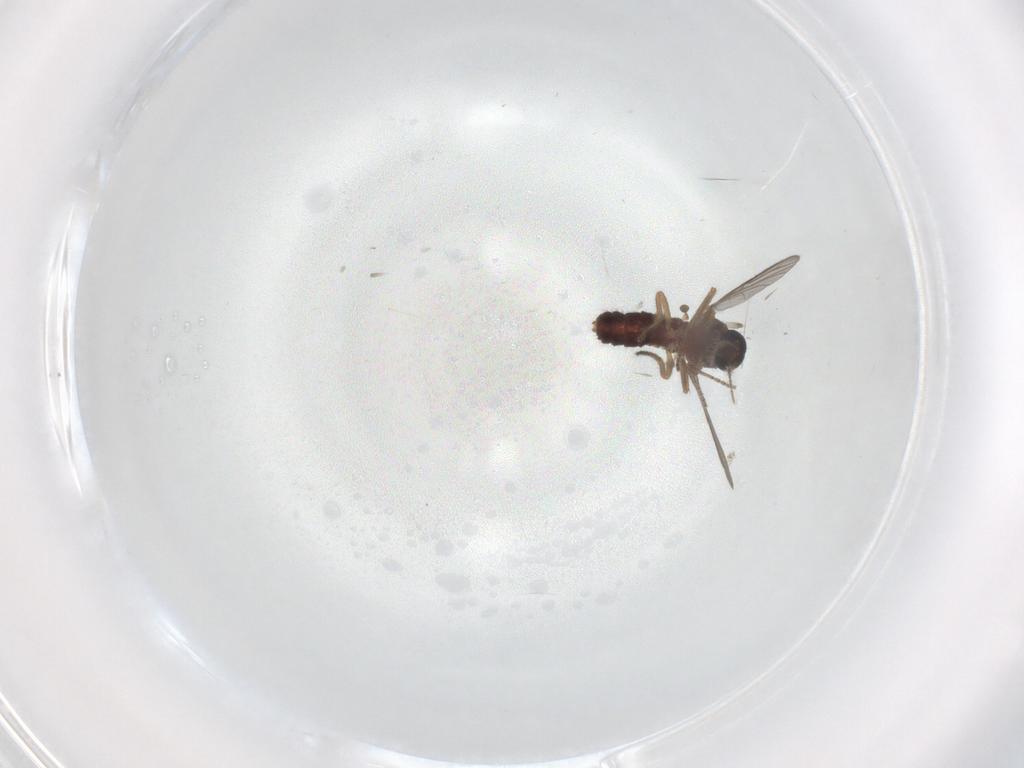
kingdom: Animalia
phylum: Arthropoda
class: Insecta
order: Diptera
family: Ceratopogonidae
